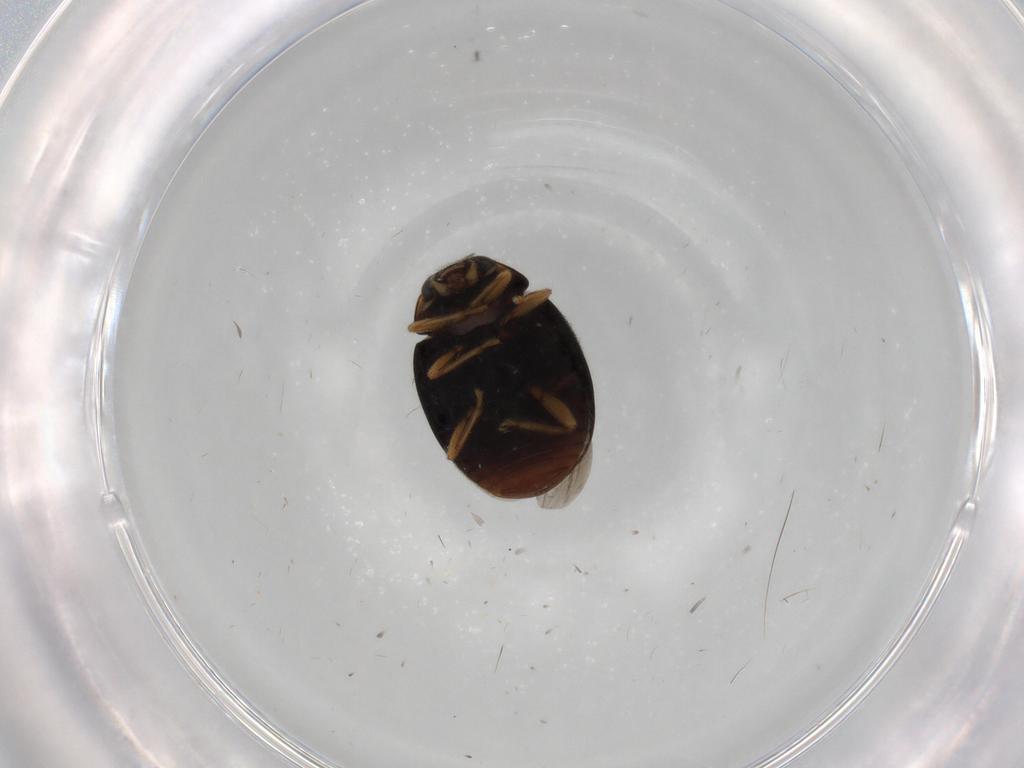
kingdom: Animalia
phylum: Arthropoda
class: Insecta
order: Coleoptera
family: Coccinellidae
